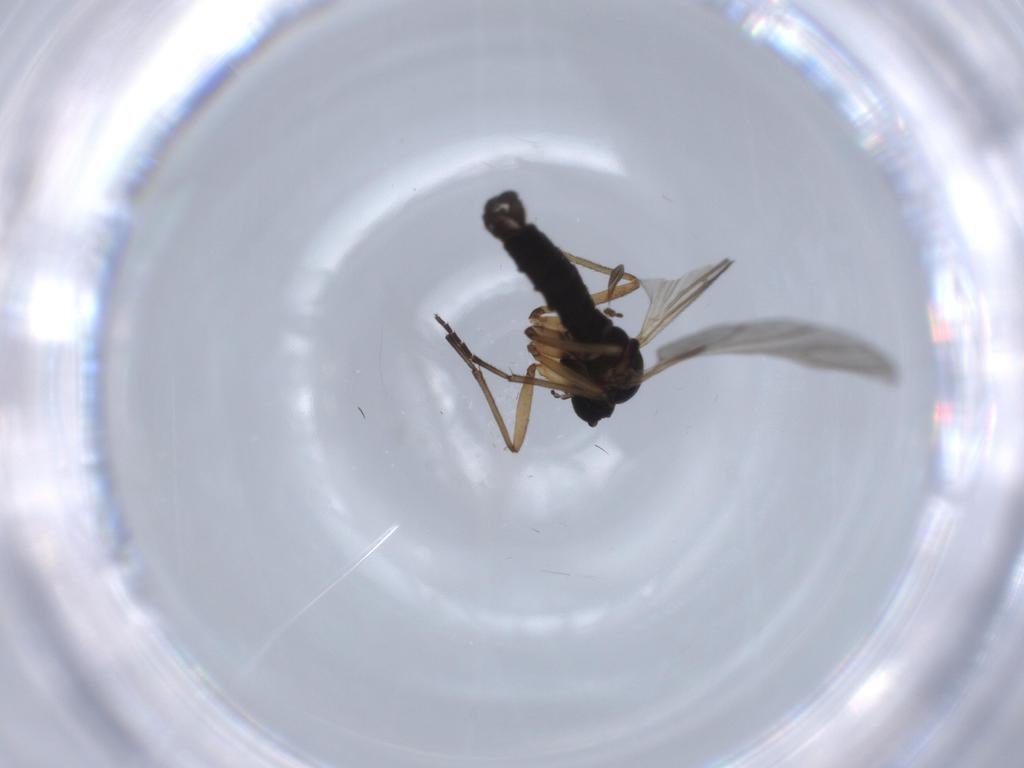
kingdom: Animalia
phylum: Arthropoda
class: Insecta
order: Diptera
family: Sciaridae
